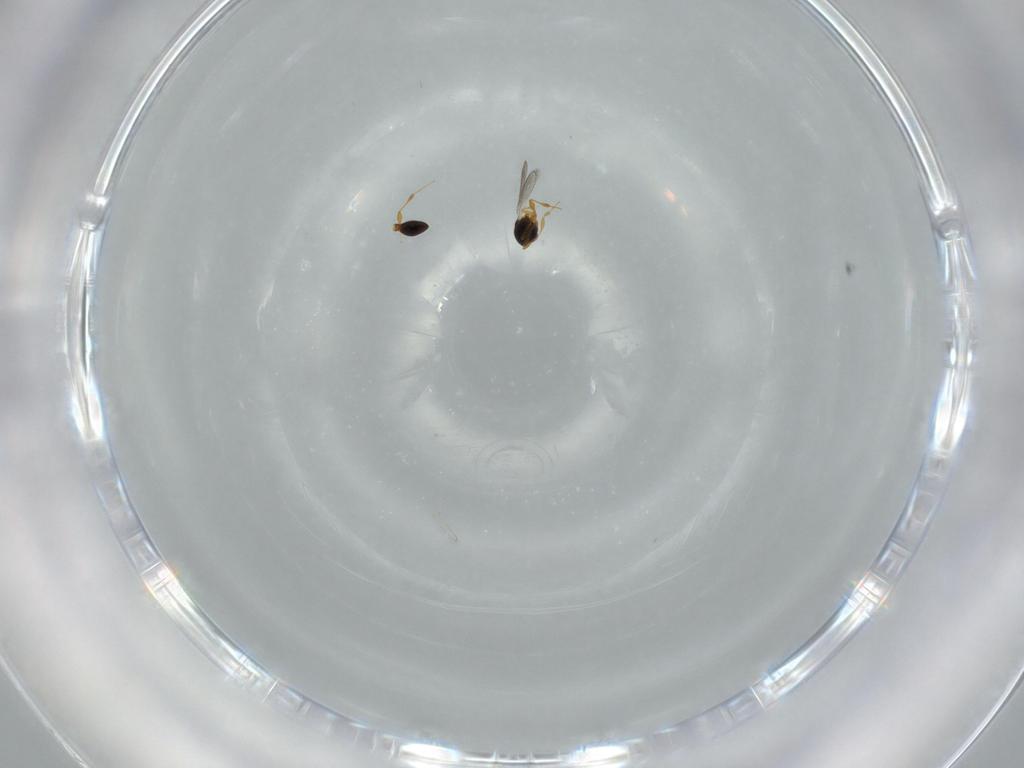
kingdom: Animalia
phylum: Arthropoda
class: Insecta
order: Hymenoptera
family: Platygastridae
